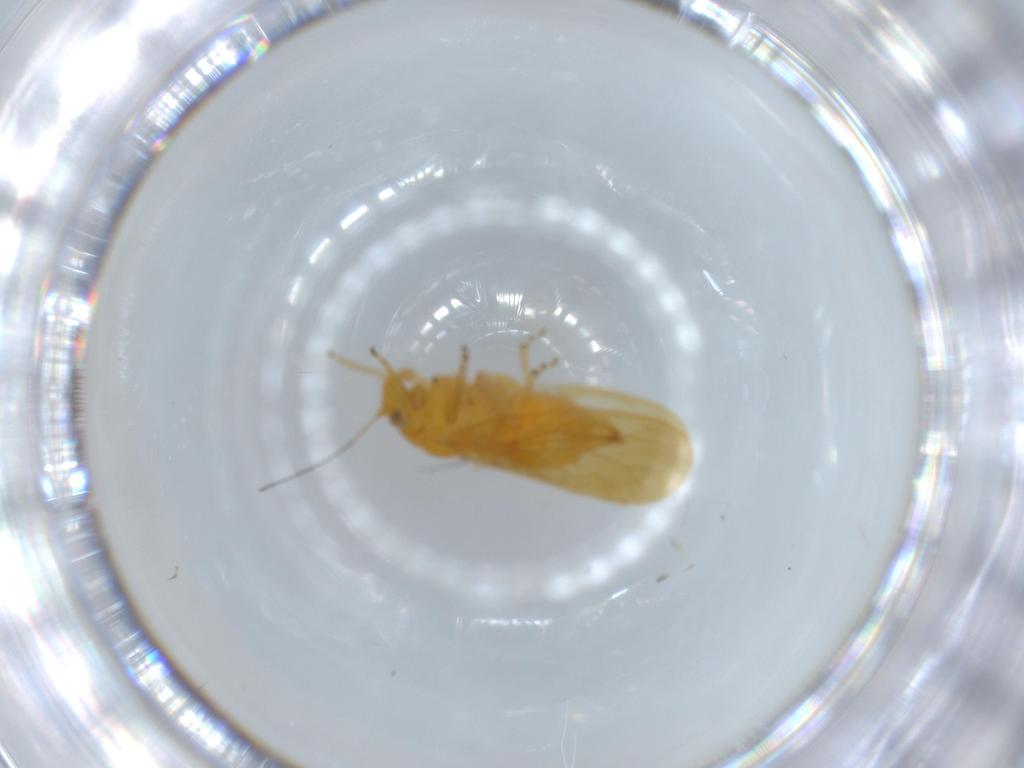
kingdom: Animalia
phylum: Arthropoda
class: Insecta
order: Hemiptera
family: Psyllidae
